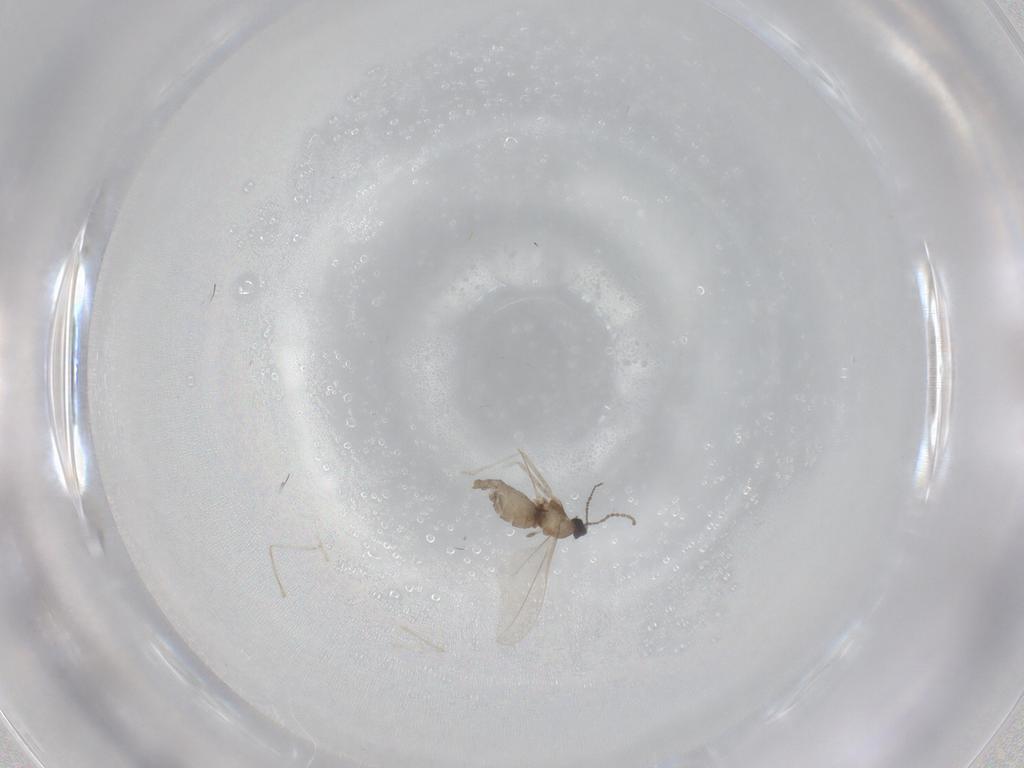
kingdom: Animalia
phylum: Arthropoda
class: Insecta
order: Diptera
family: Cecidomyiidae
